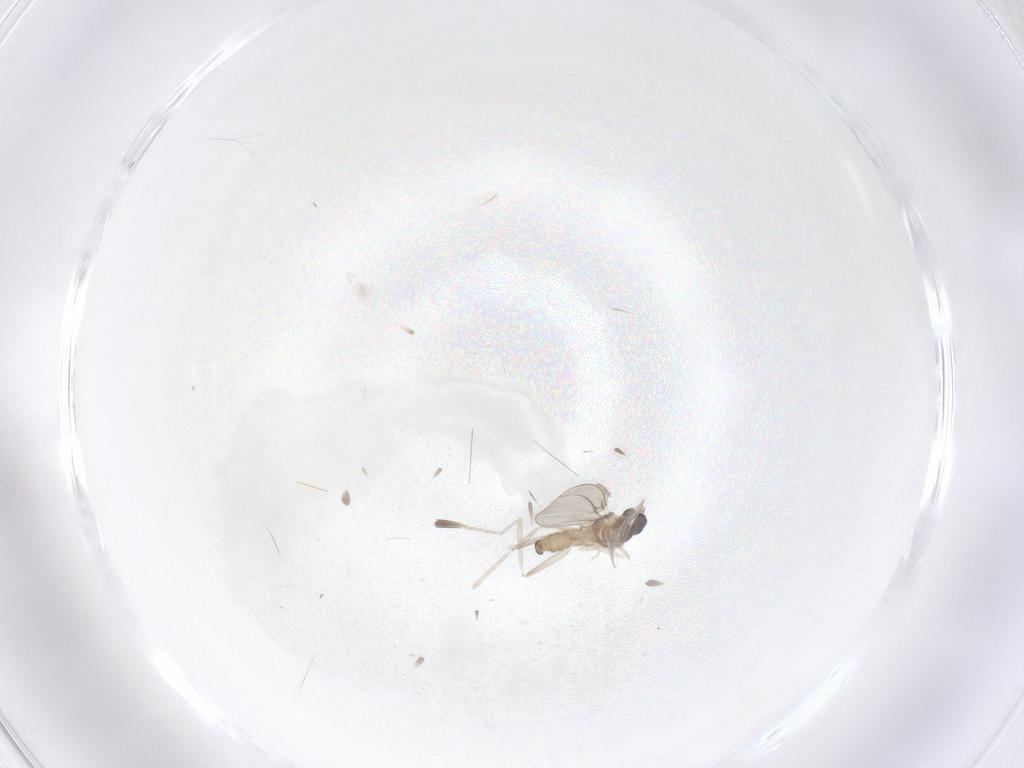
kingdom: Animalia
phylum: Arthropoda
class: Insecta
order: Diptera
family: Cecidomyiidae
